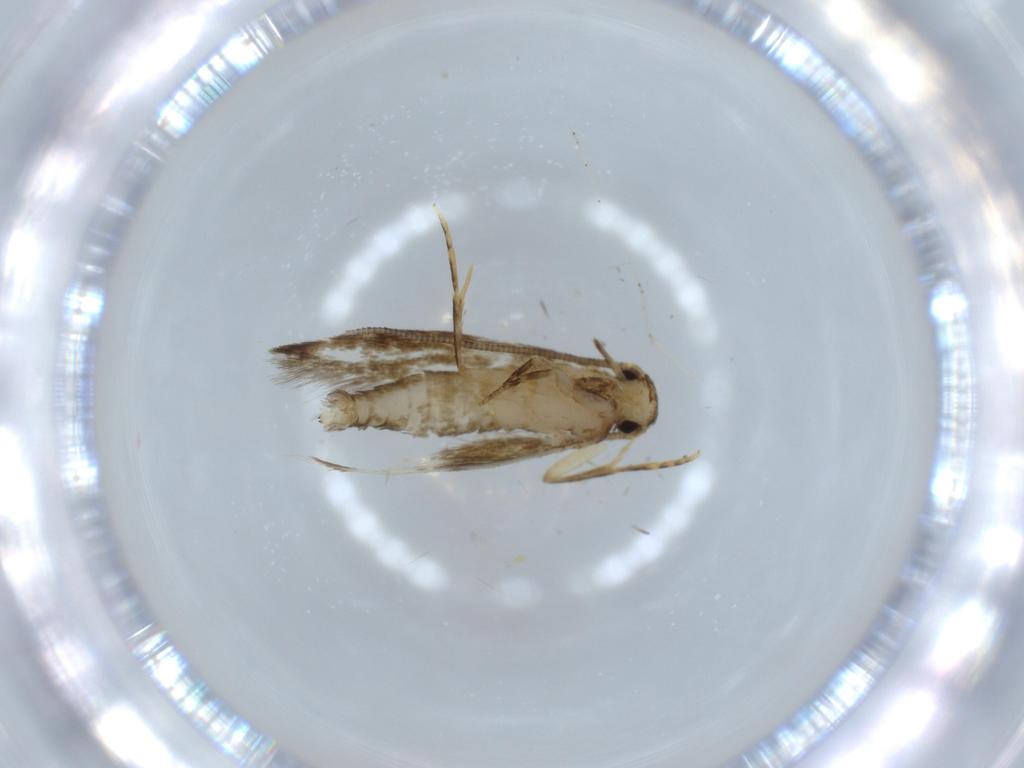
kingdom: Animalia
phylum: Arthropoda
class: Insecta
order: Lepidoptera
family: Tineidae
